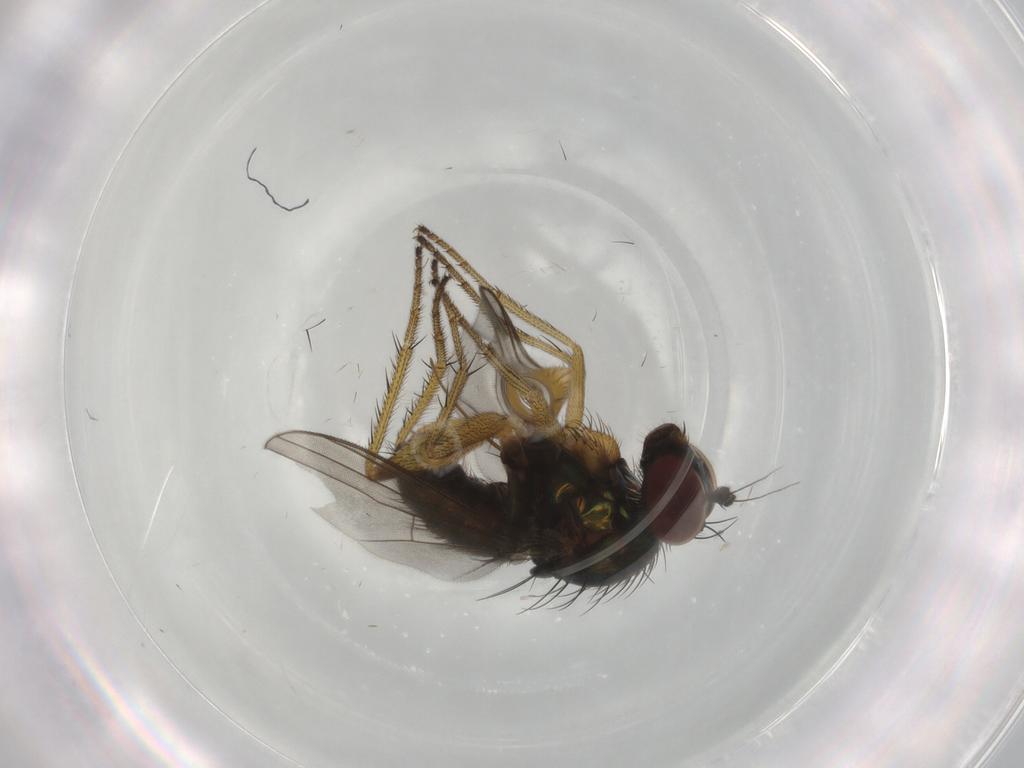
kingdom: Animalia
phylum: Arthropoda
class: Insecta
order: Diptera
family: Dolichopodidae
